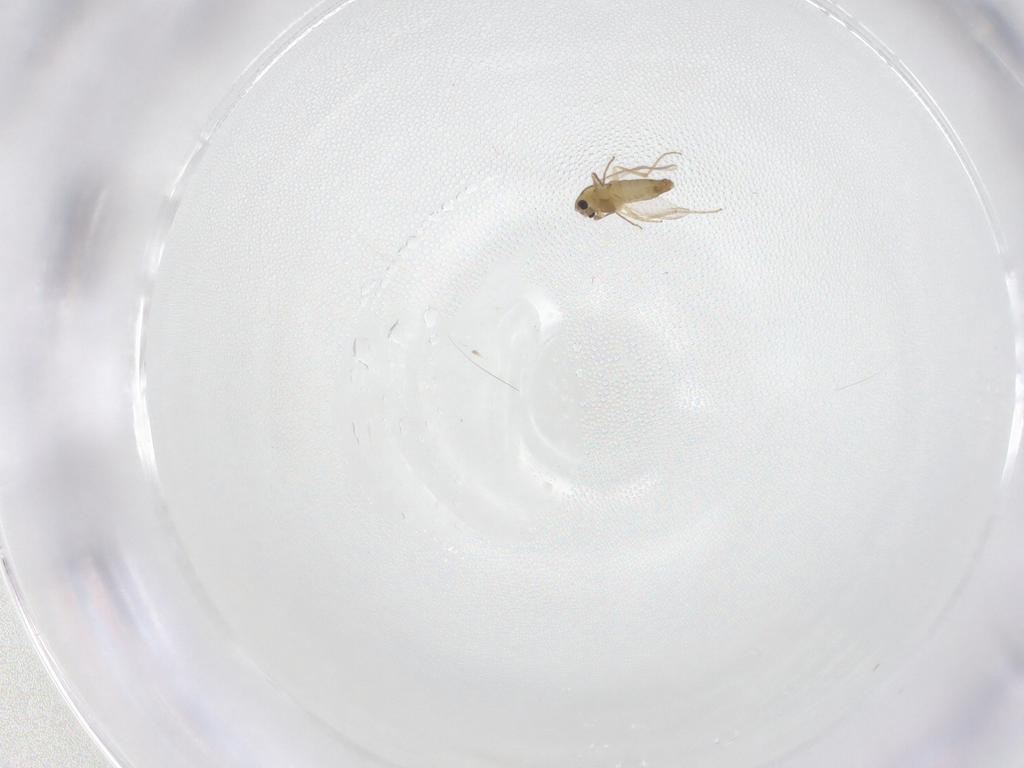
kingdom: Animalia
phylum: Arthropoda
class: Insecta
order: Diptera
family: Chironomidae
